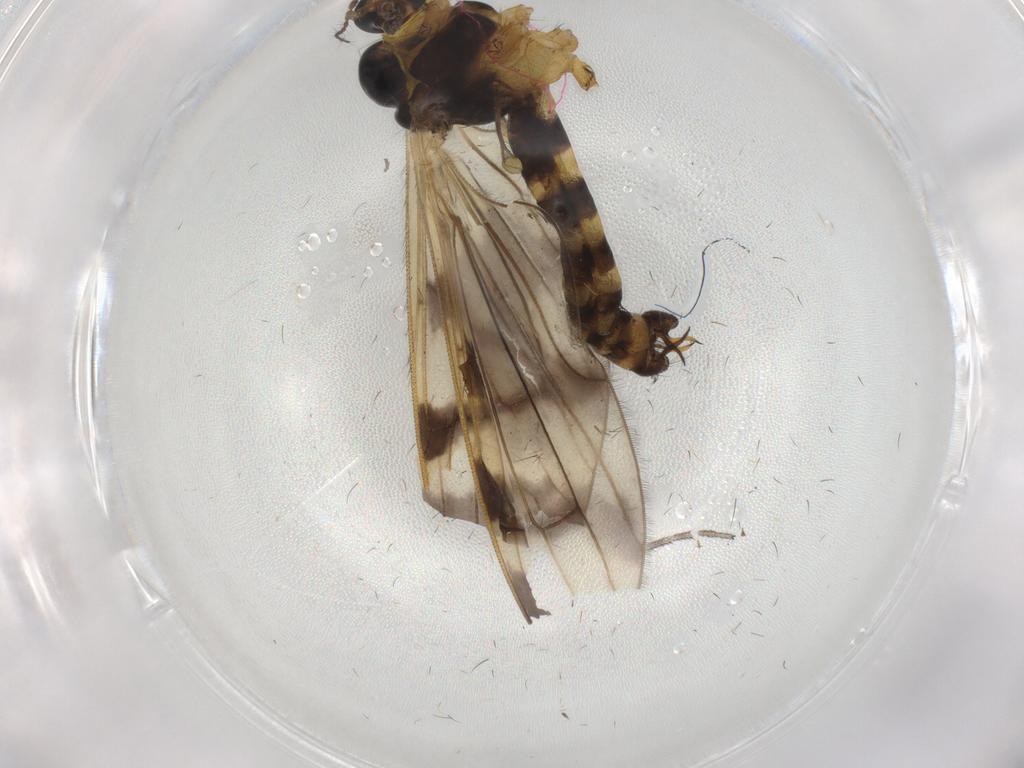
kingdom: Animalia
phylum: Arthropoda
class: Insecta
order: Diptera
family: Limoniidae
